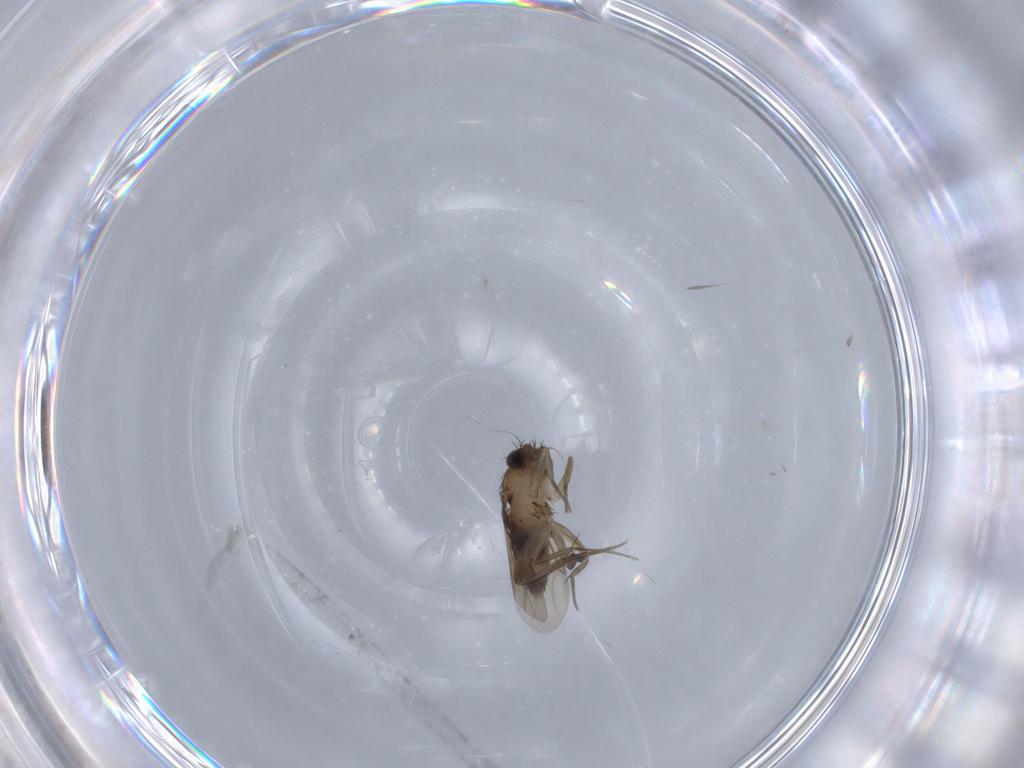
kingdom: Animalia
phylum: Arthropoda
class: Insecta
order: Diptera
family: Phoridae
